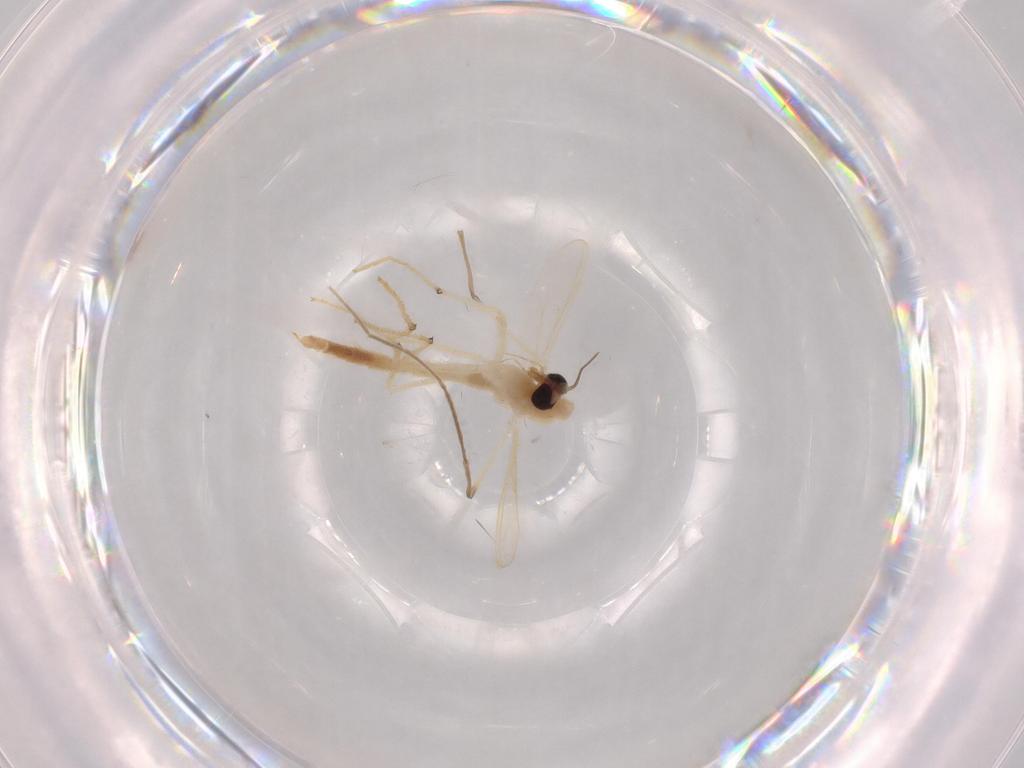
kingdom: Animalia
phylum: Arthropoda
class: Insecta
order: Diptera
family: Chironomidae
